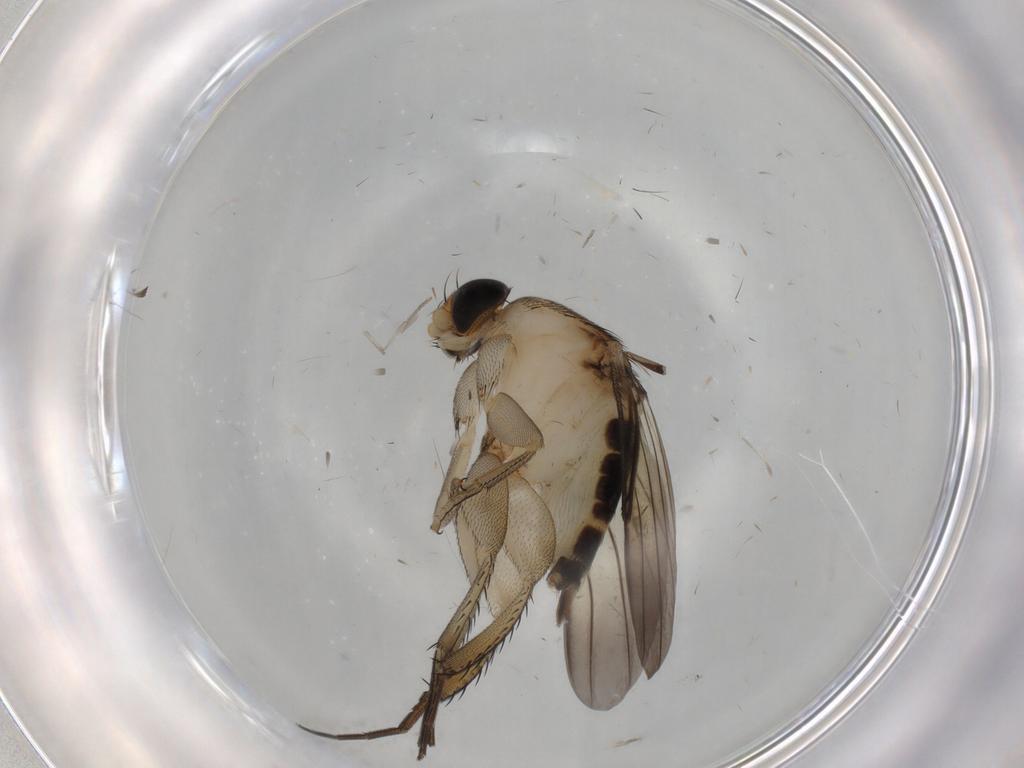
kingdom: Animalia
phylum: Arthropoda
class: Insecta
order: Diptera
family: Phoridae
